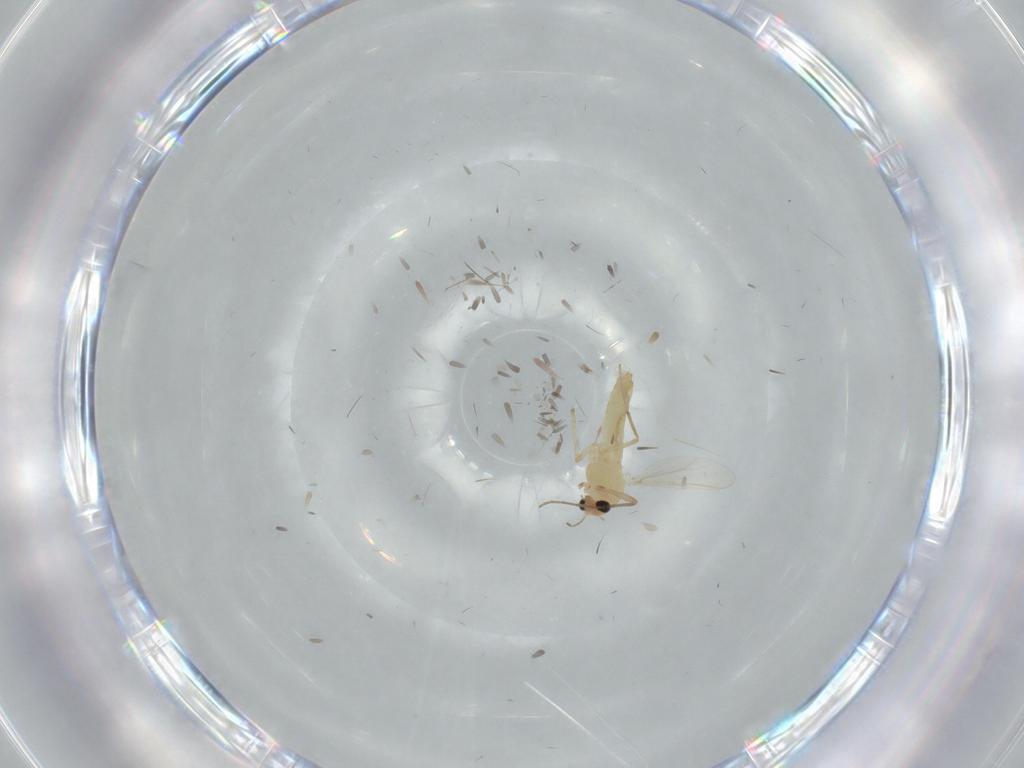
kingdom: Animalia
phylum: Arthropoda
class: Insecta
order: Diptera
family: Chironomidae
